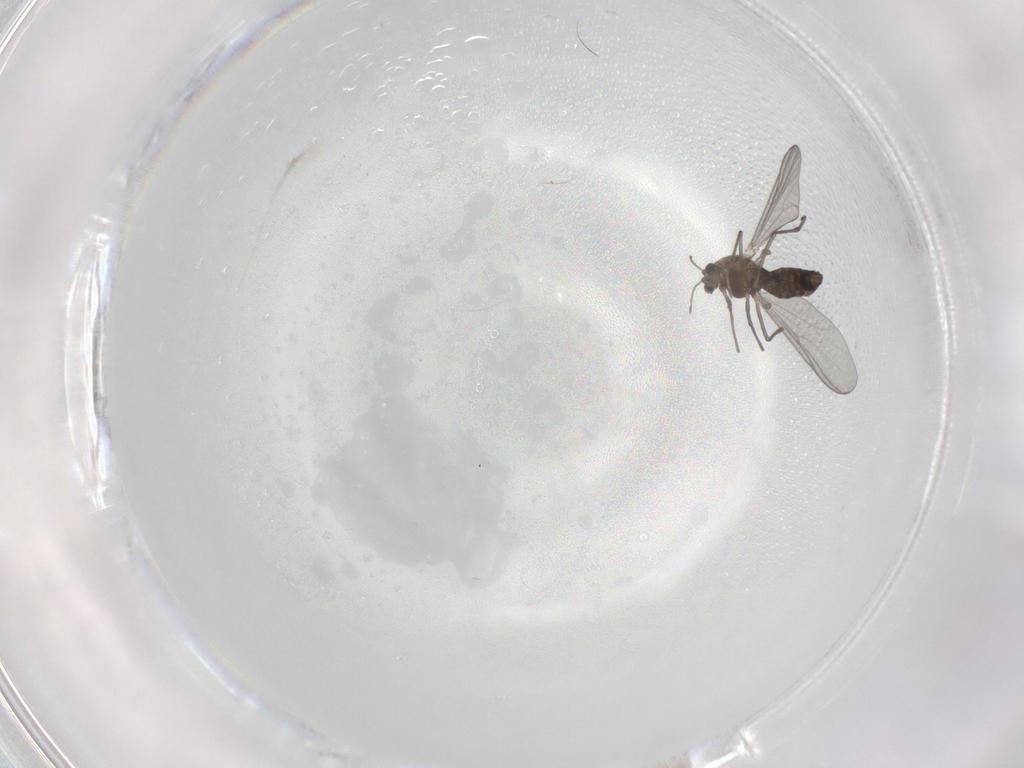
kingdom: Animalia
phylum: Arthropoda
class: Insecta
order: Diptera
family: Chironomidae
